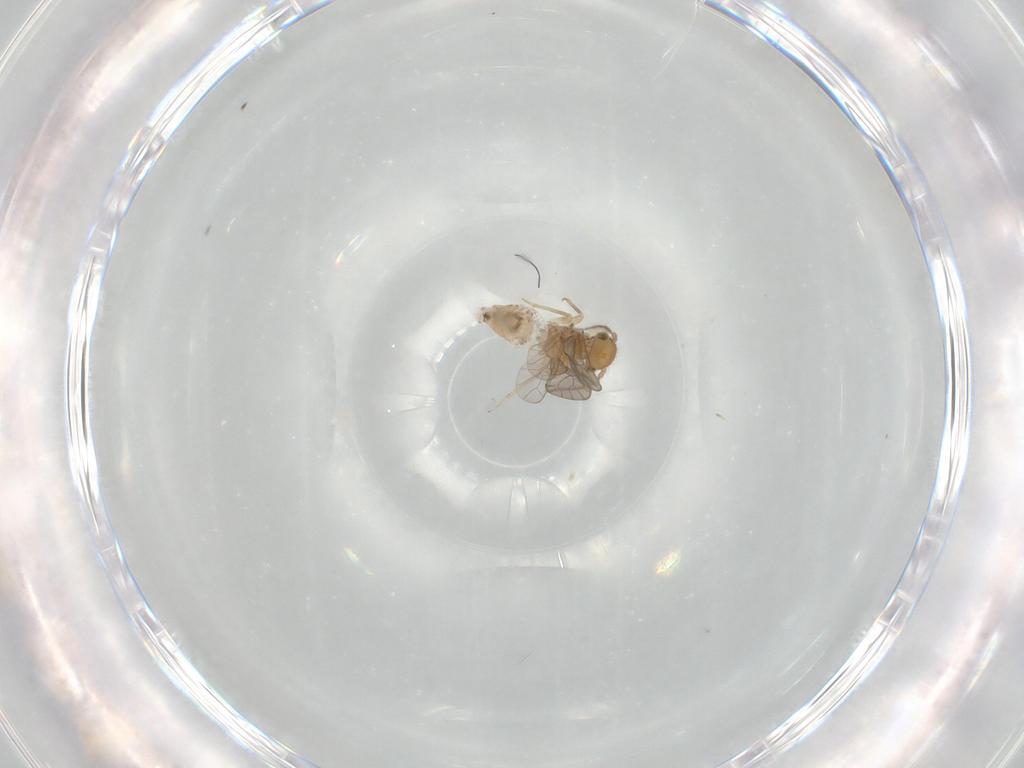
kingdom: Animalia
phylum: Arthropoda
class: Insecta
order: Psocodea
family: Ectopsocidae
